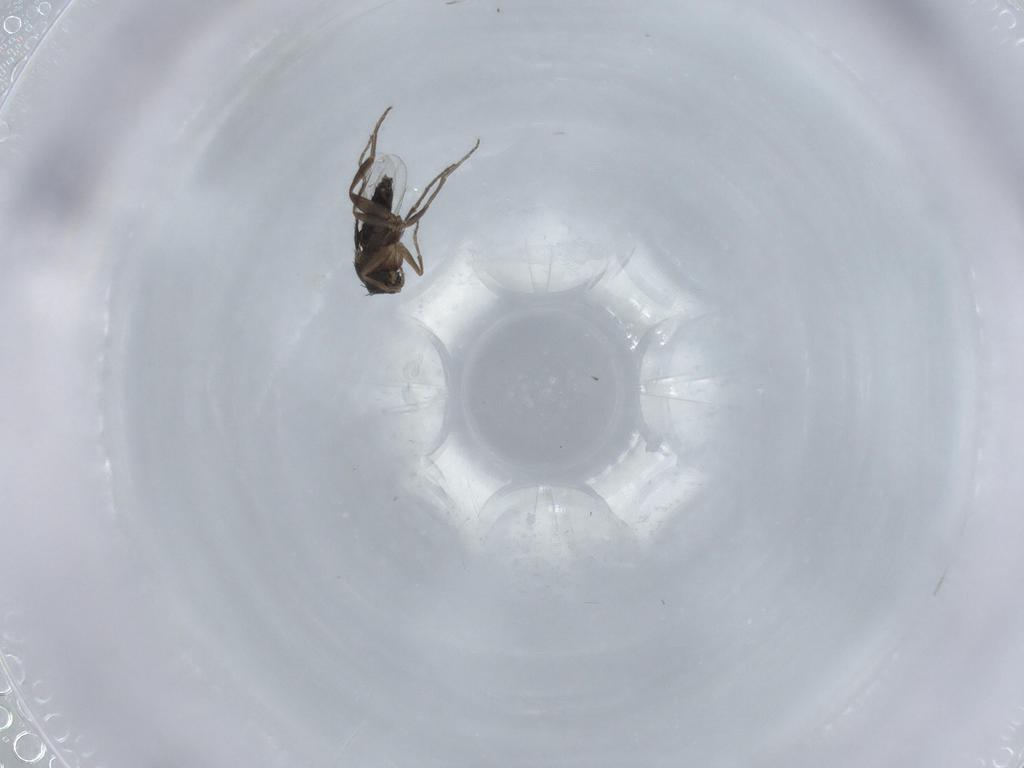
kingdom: Animalia
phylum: Arthropoda
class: Insecta
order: Diptera
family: Phoridae
